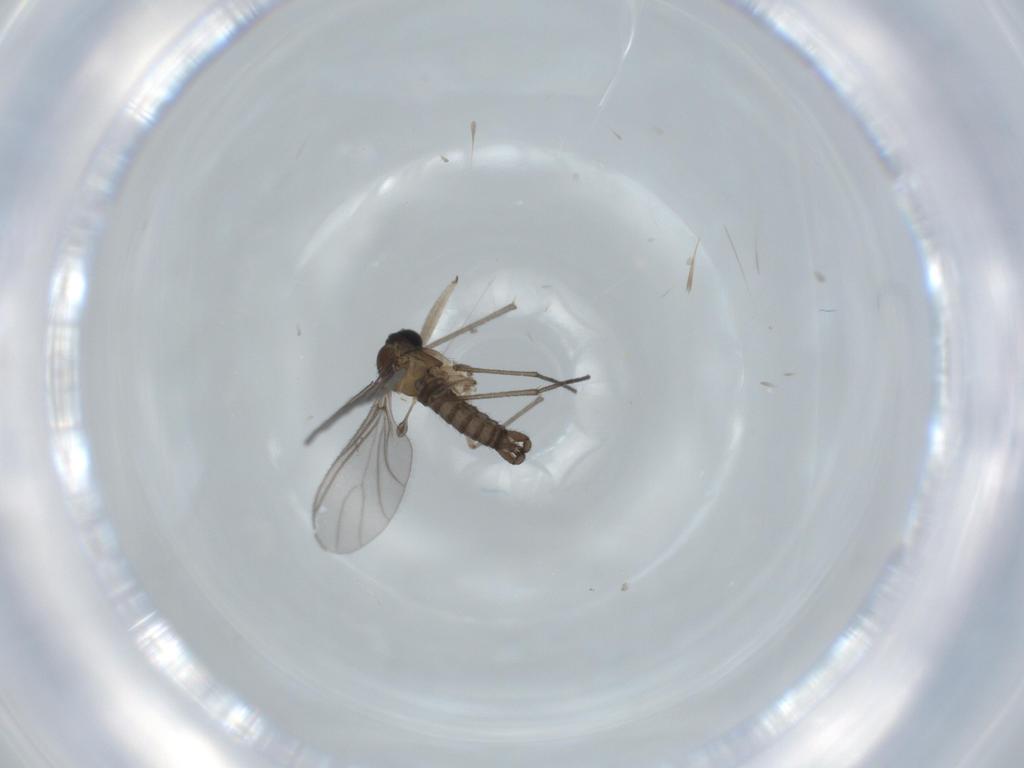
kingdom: Animalia
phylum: Arthropoda
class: Insecta
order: Diptera
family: Sciaridae
